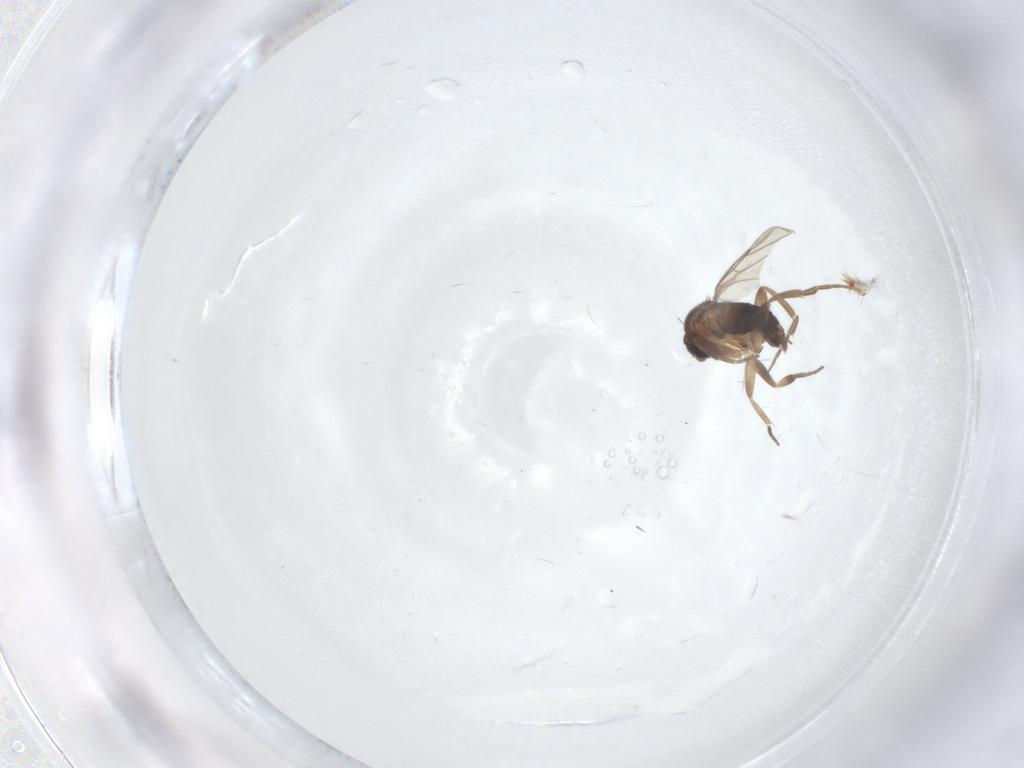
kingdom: Animalia
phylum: Arthropoda
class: Insecta
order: Diptera
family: Phoridae
